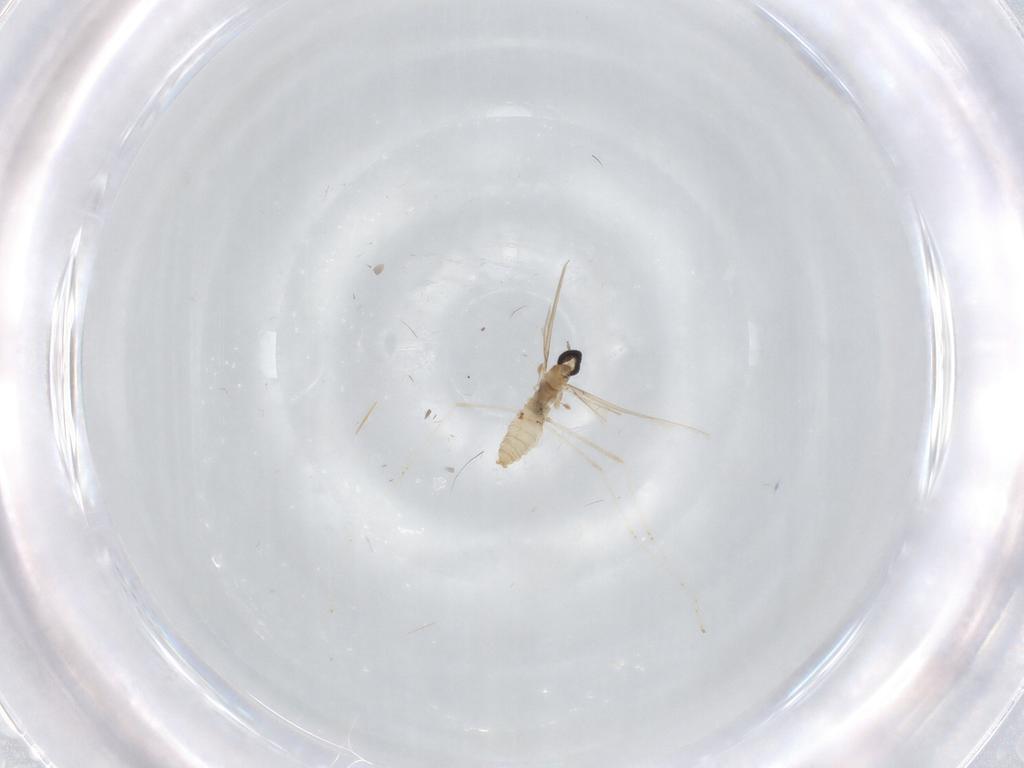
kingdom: Animalia
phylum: Arthropoda
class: Insecta
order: Diptera
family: Cecidomyiidae
